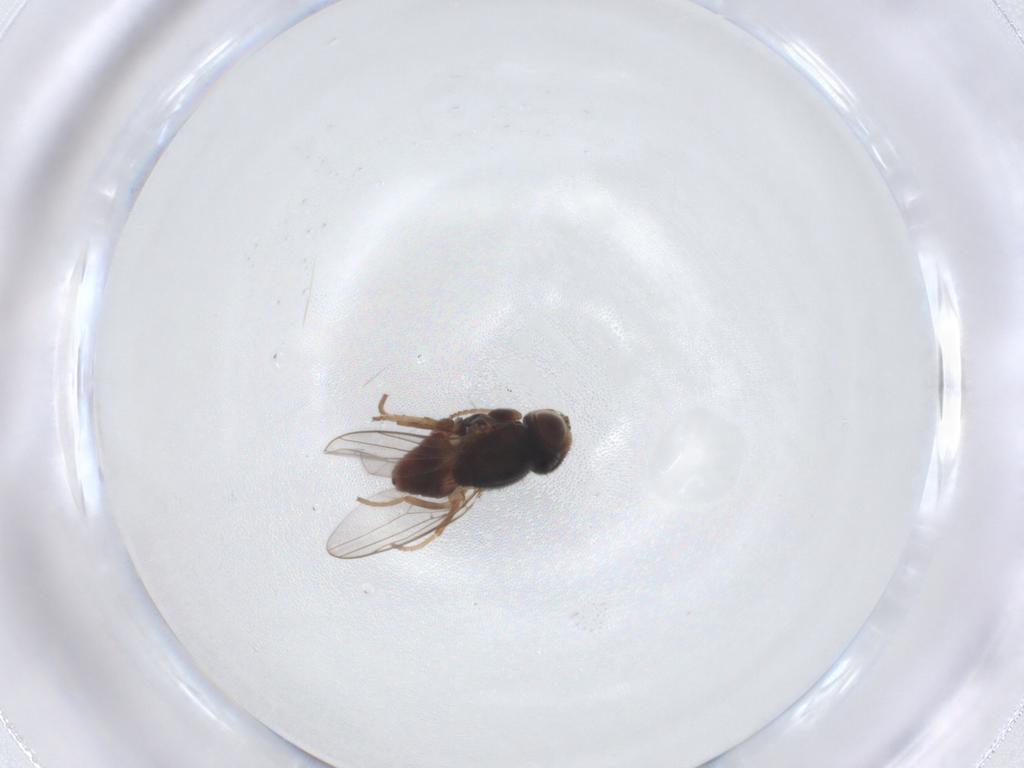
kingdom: Animalia
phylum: Arthropoda
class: Insecta
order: Diptera
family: Chloropidae
